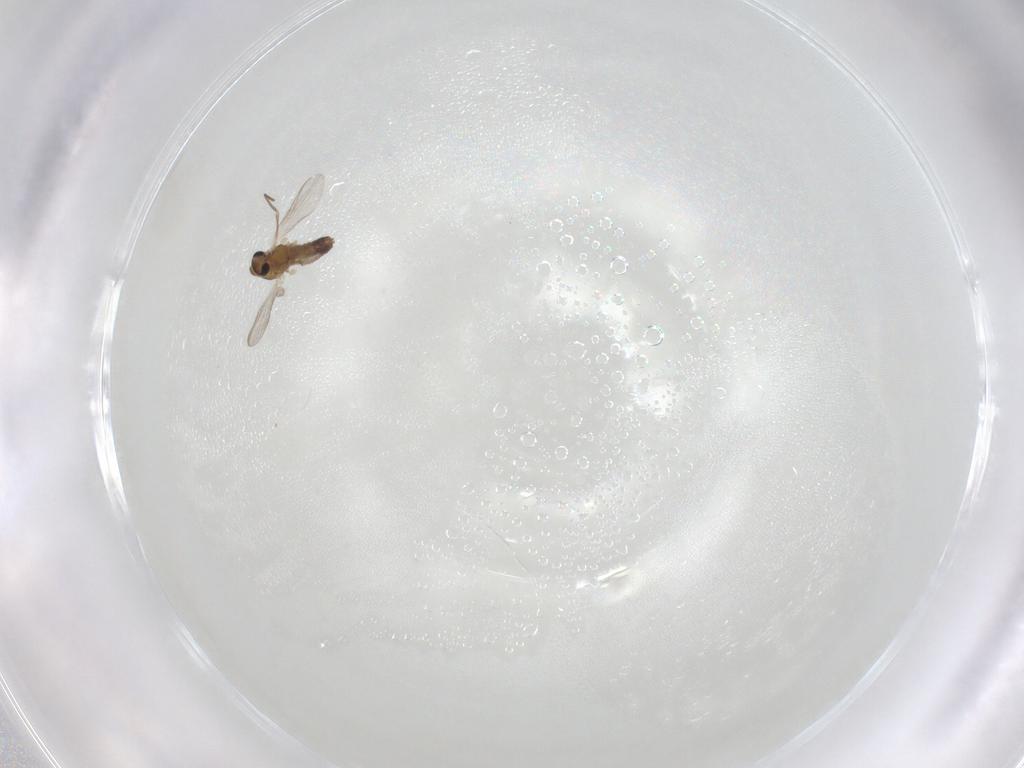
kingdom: Animalia
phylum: Arthropoda
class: Insecta
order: Diptera
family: Chironomidae
